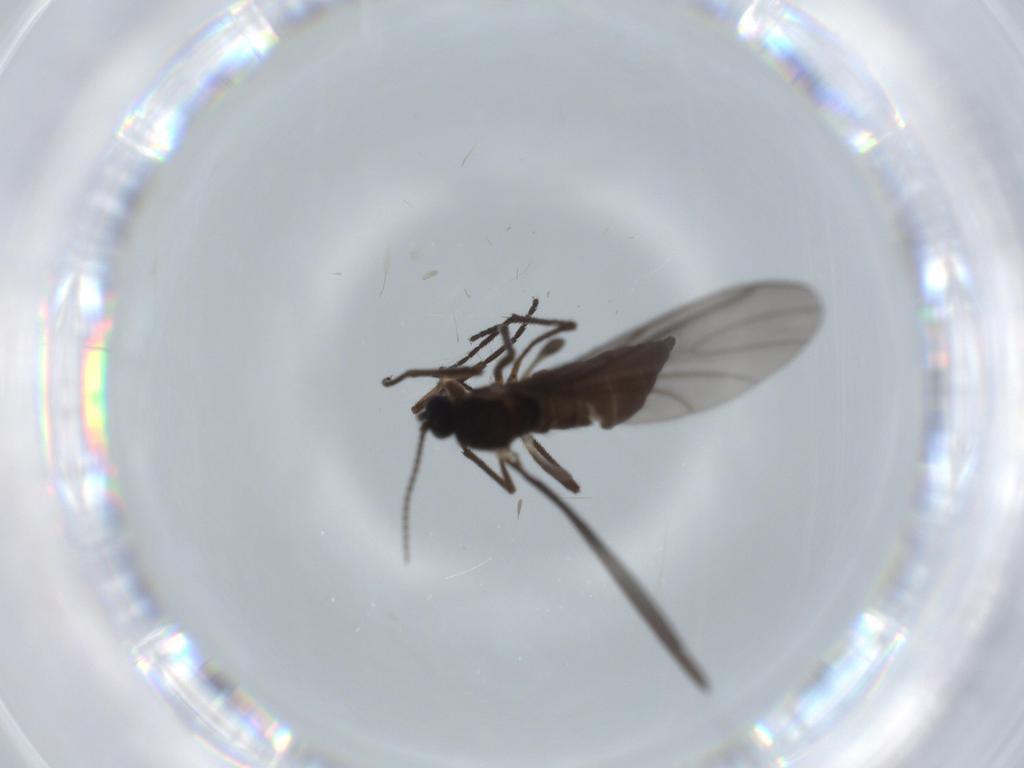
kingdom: Animalia
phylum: Arthropoda
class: Insecta
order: Diptera
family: Sciaridae
